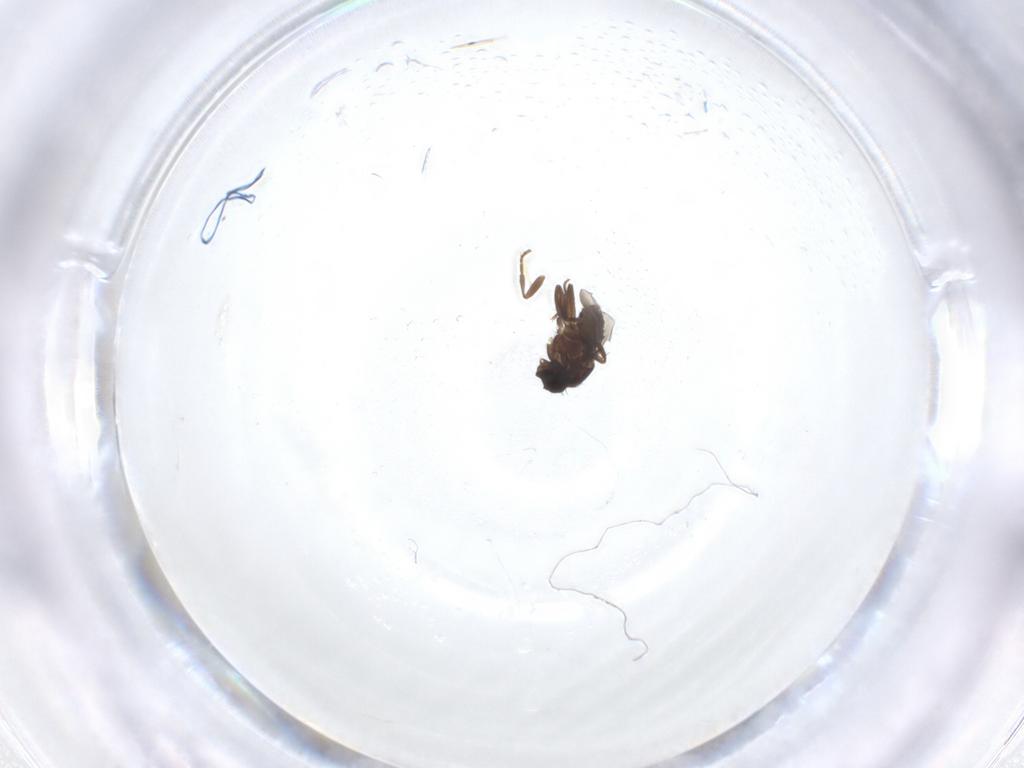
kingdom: Animalia
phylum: Arthropoda
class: Insecta
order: Diptera
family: Sphaeroceridae
